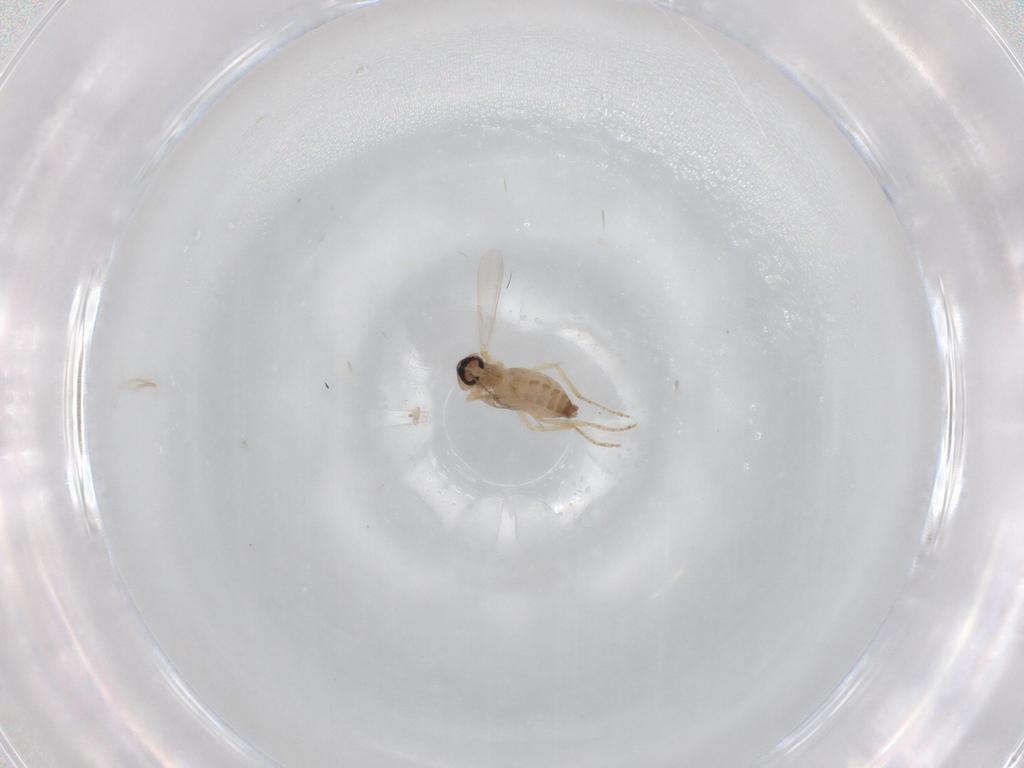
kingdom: Animalia
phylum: Arthropoda
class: Insecta
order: Diptera
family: Ceratopogonidae
